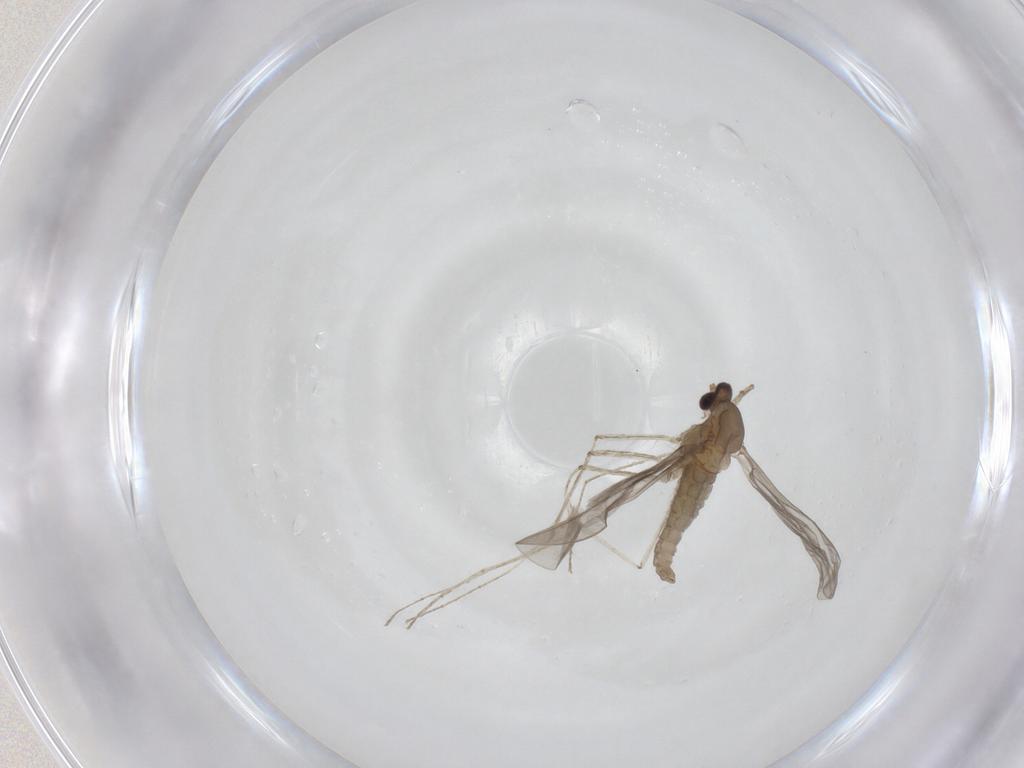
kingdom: Animalia
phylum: Arthropoda
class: Insecta
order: Diptera
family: Cecidomyiidae
